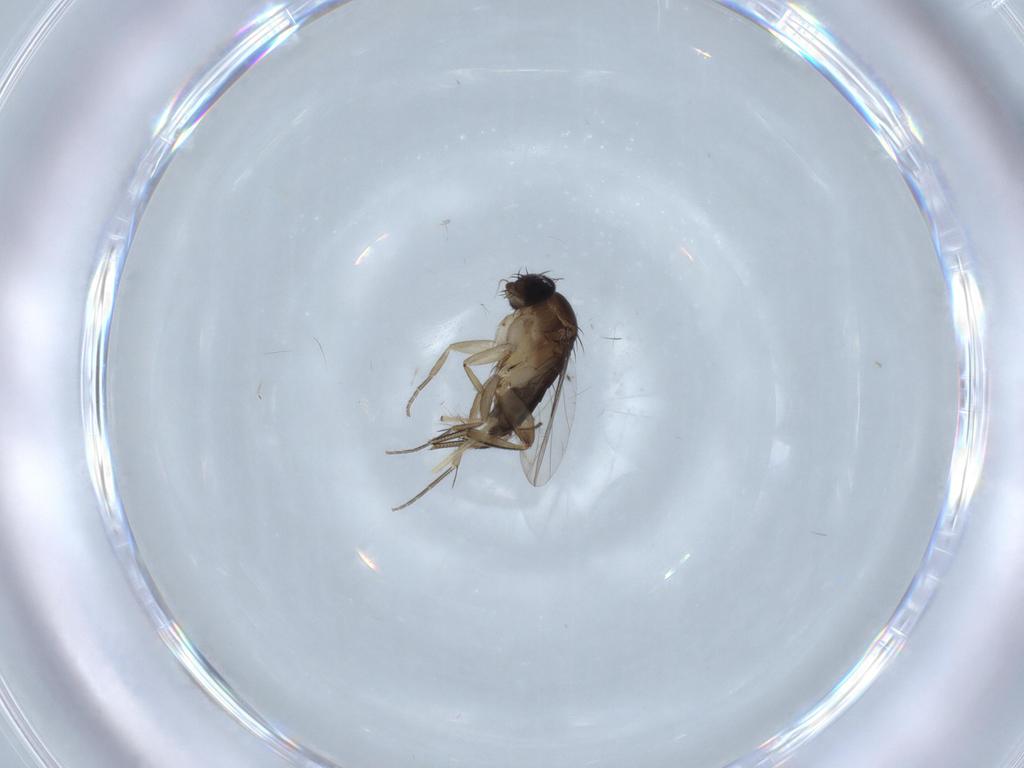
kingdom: Animalia
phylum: Arthropoda
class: Insecta
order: Diptera
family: Phoridae
